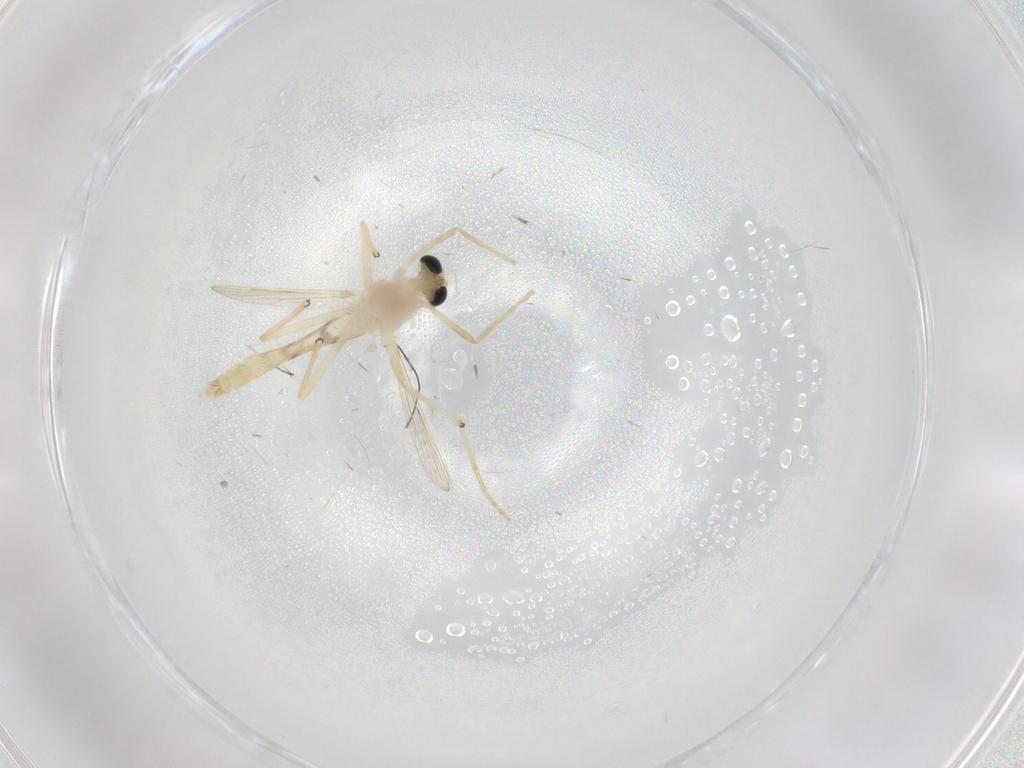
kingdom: Animalia
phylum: Arthropoda
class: Insecta
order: Diptera
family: Chironomidae
